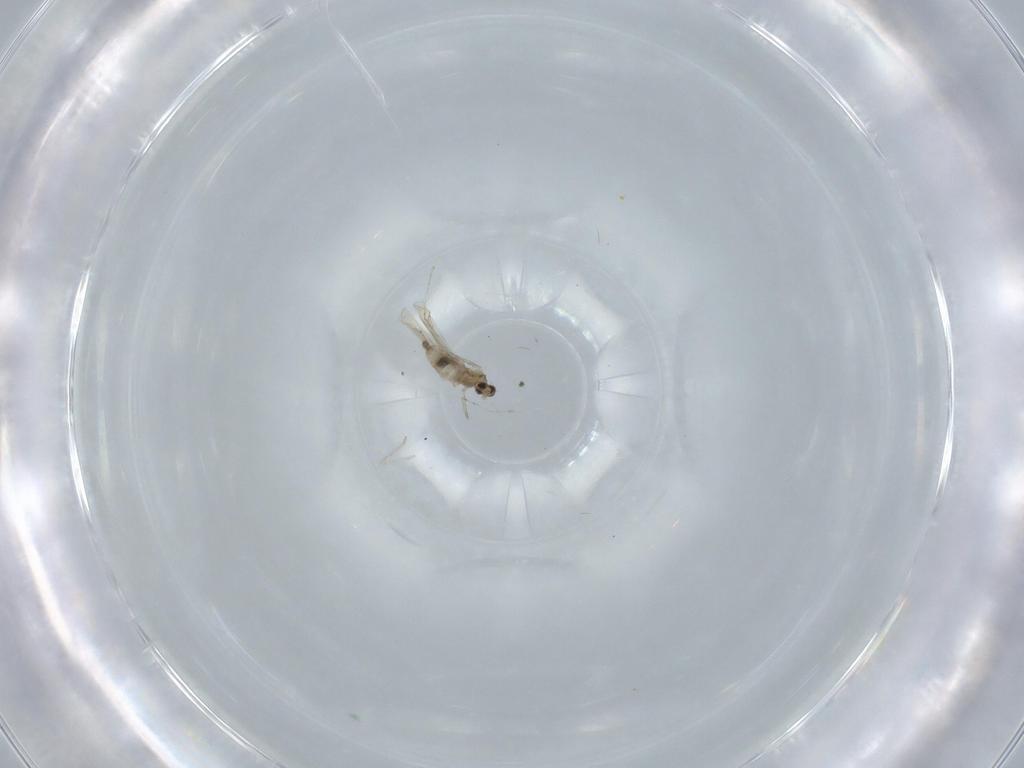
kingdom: Animalia
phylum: Arthropoda
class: Insecta
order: Diptera
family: Cecidomyiidae
